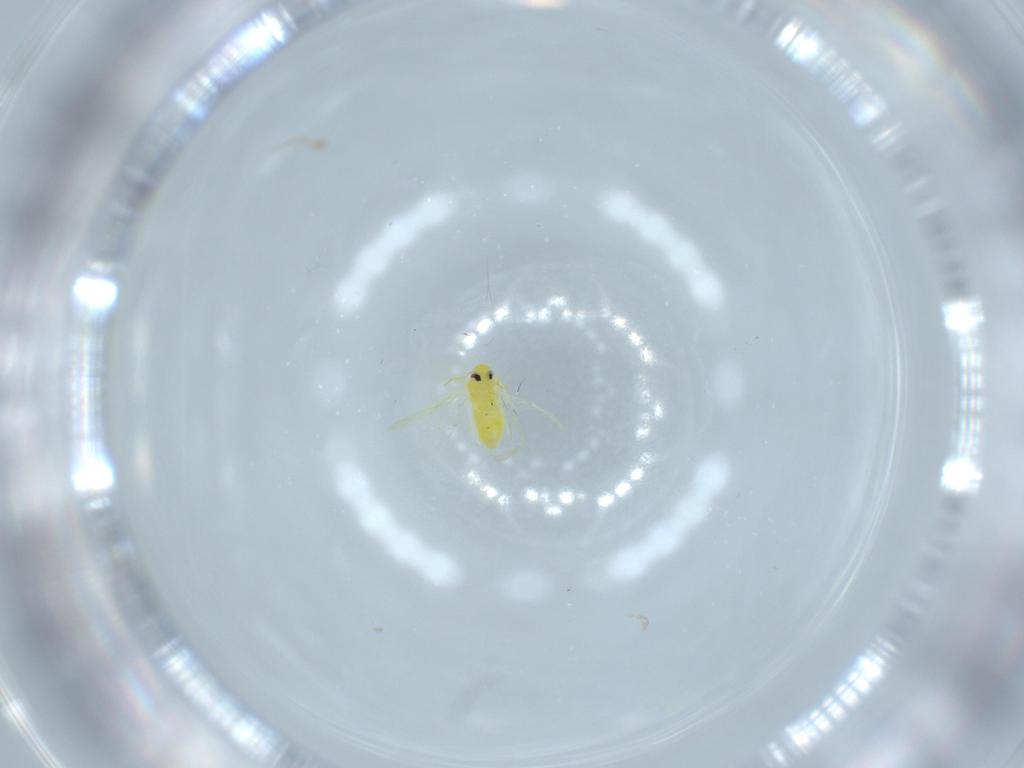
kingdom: Animalia
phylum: Arthropoda
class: Insecta
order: Hemiptera
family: Aleyrodidae
